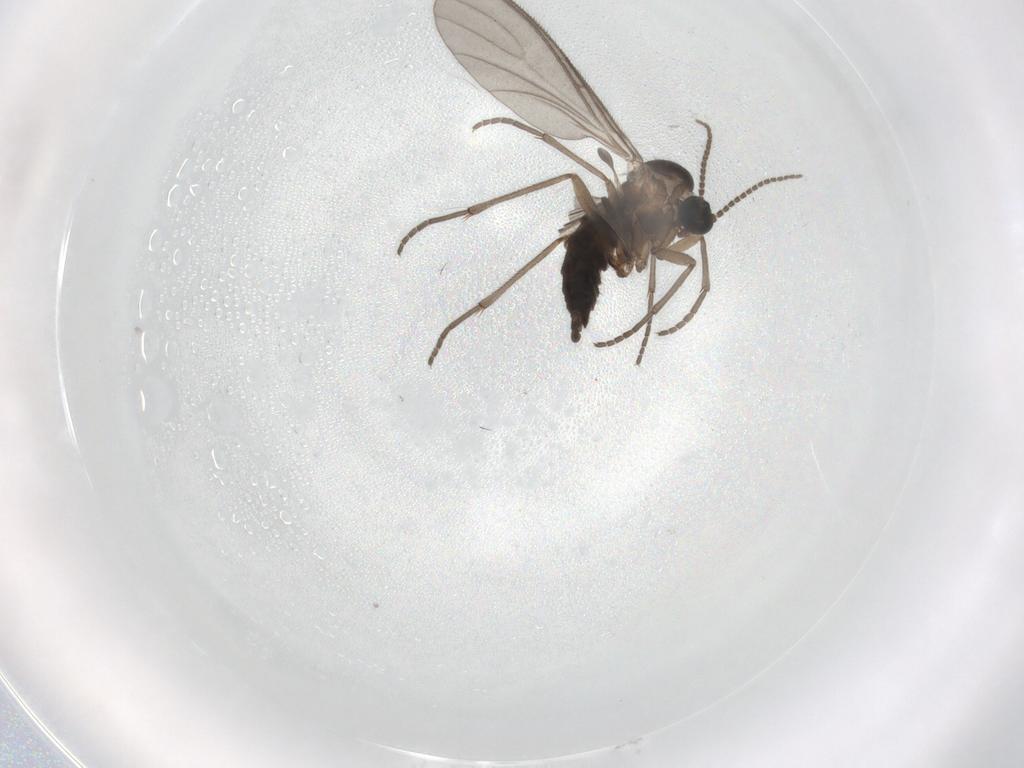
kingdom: Animalia
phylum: Arthropoda
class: Insecta
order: Diptera
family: Sciaridae
